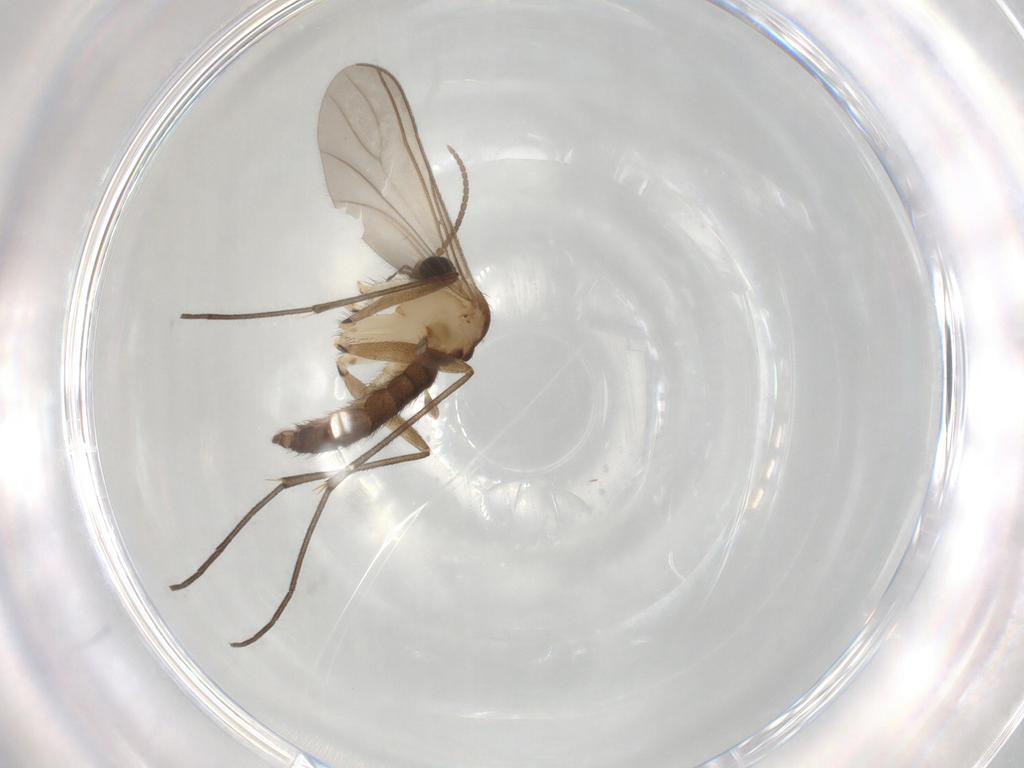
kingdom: Animalia
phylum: Arthropoda
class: Insecta
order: Diptera
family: Sciaridae
